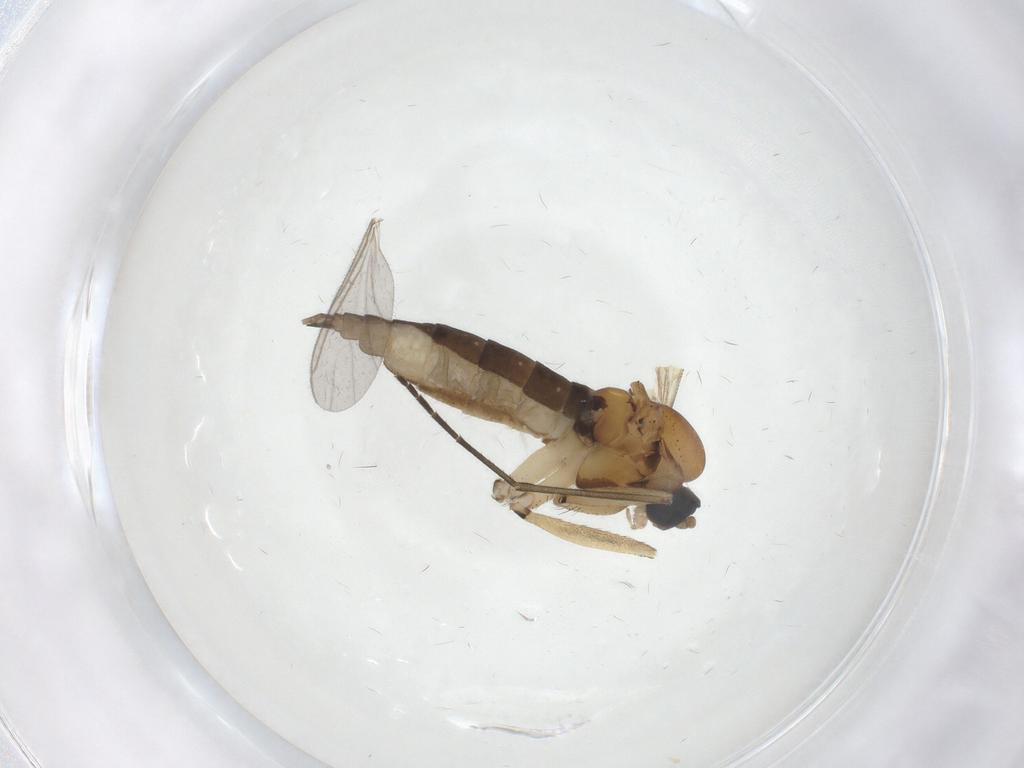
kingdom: Animalia
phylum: Arthropoda
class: Insecta
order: Diptera
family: Sciaridae
